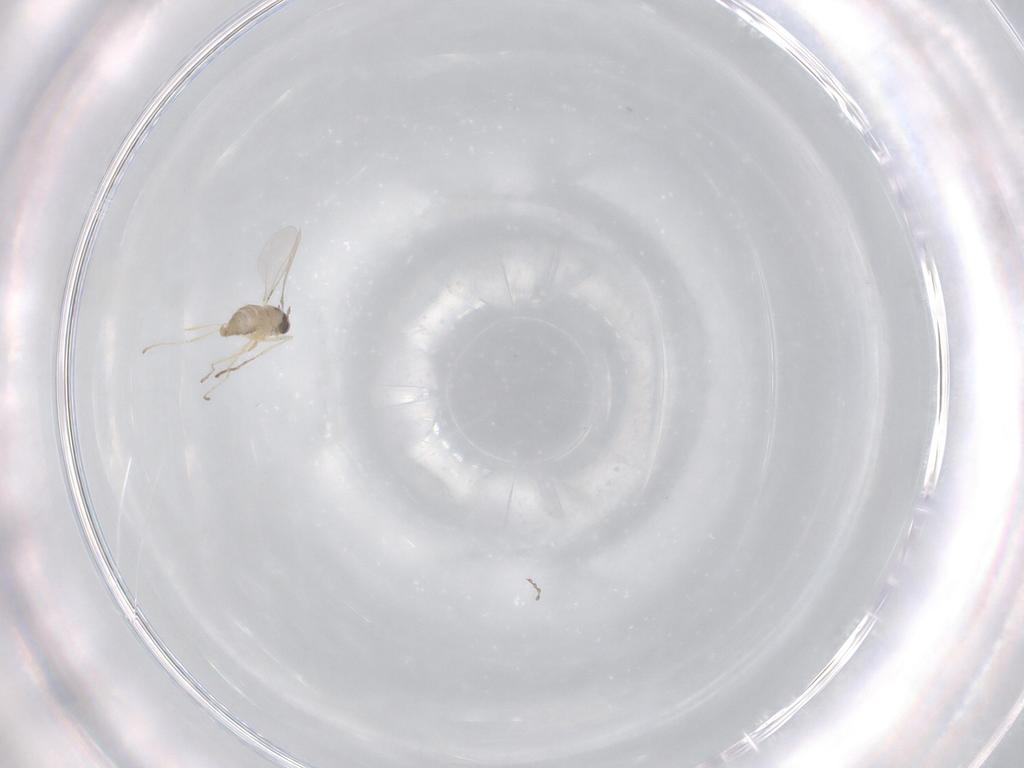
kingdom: Animalia
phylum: Arthropoda
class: Insecta
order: Diptera
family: Cecidomyiidae
